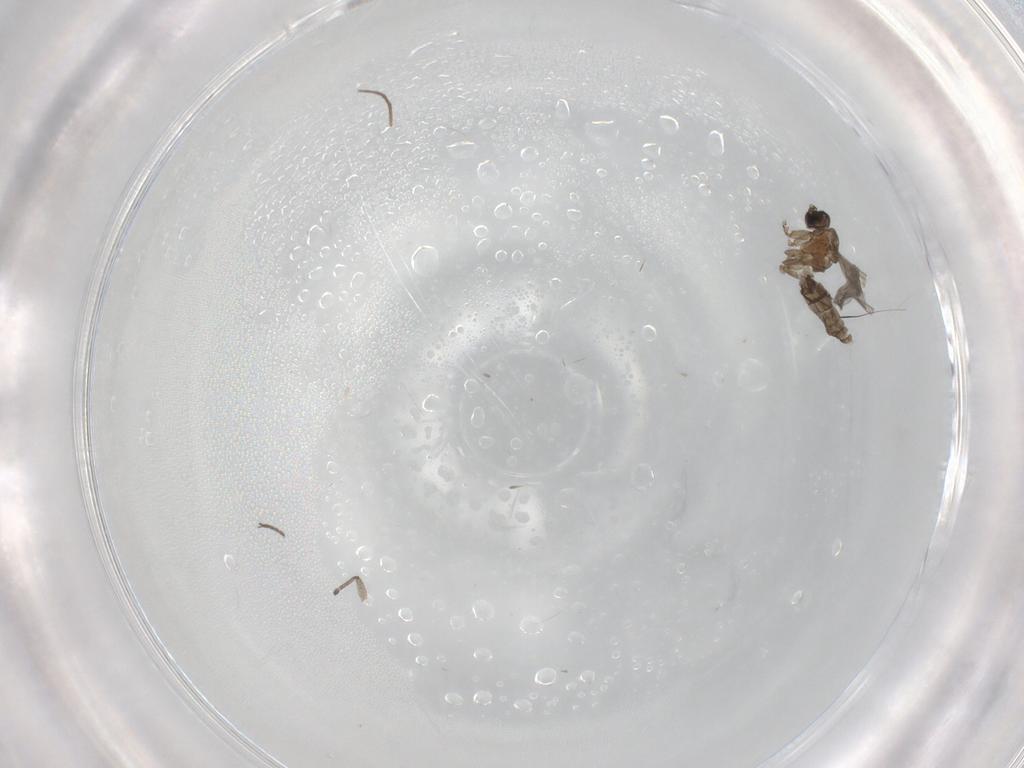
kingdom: Animalia
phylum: Arthropoda
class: Insecta
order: Diptera
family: Sciaridae
